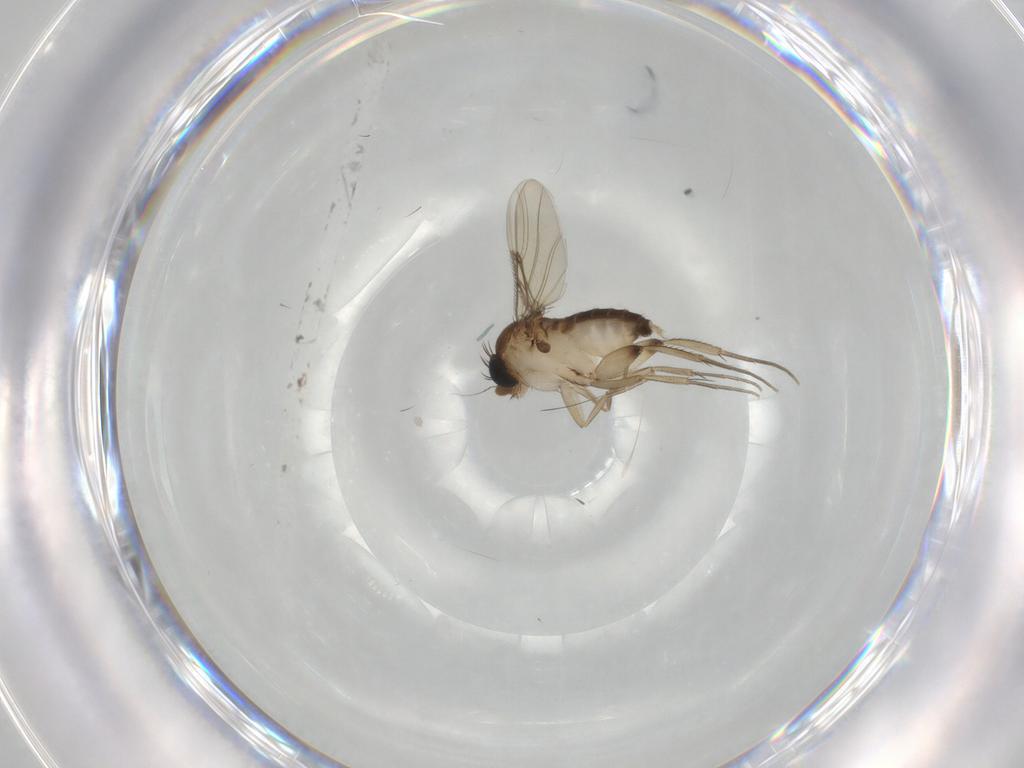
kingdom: Animalia
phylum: Arthropoda
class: Insecta
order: Diptera
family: Phoridae
